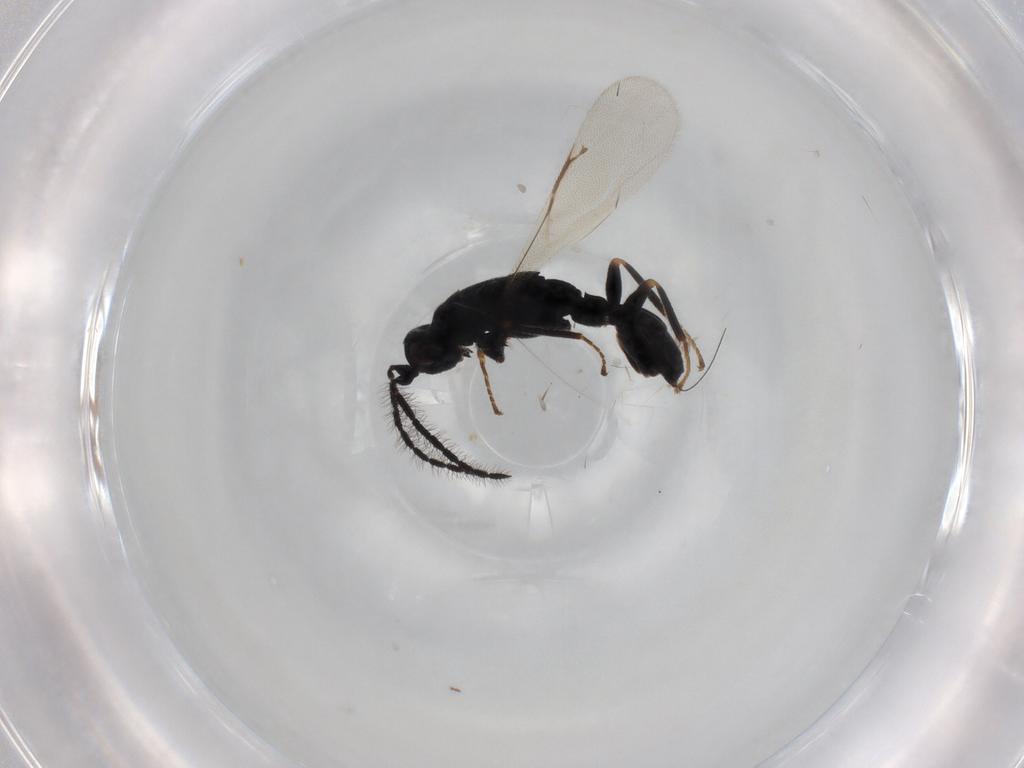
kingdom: Animalia
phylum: Arthropoda
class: Insecta
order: Hymenoptera
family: Eurytomidae
